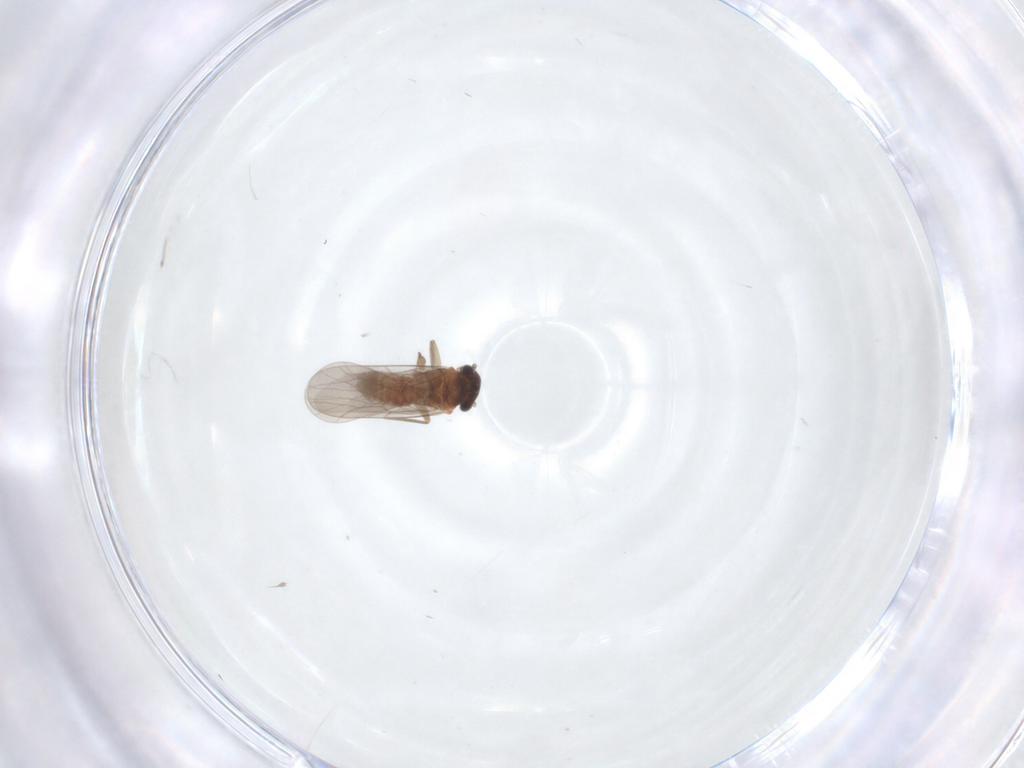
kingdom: Animalia
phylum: Arthropoda
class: Insecta
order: Psocodea
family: Lepidopsocidae
